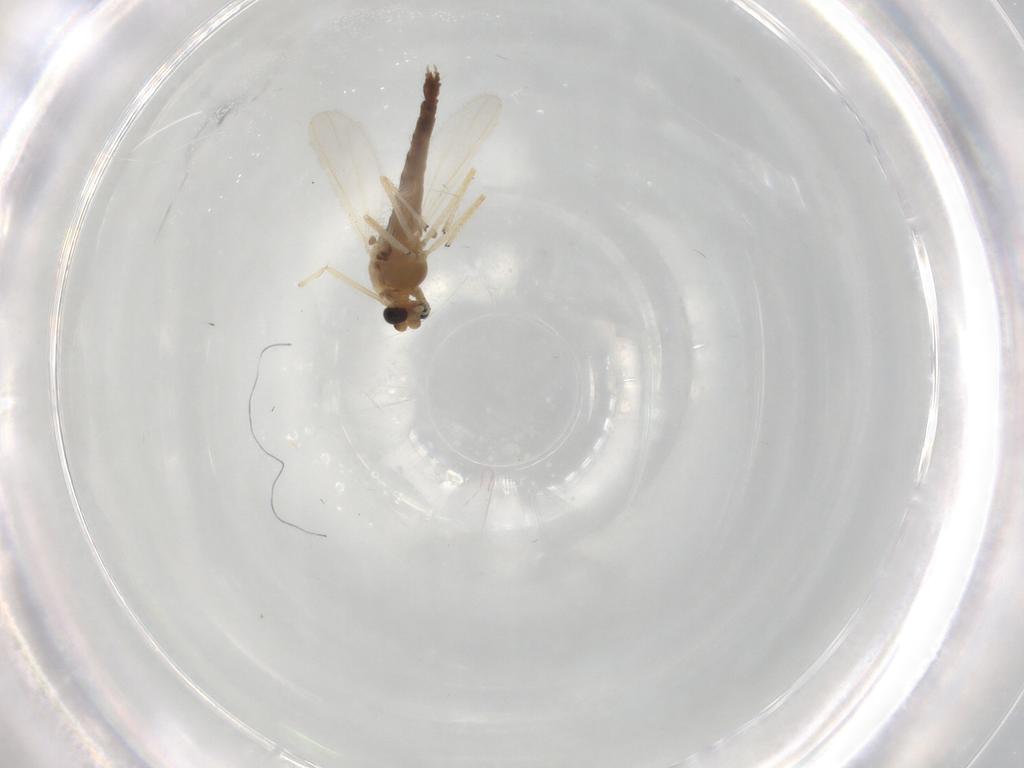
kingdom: Animalia
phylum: Arthropoda
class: Insecta
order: Diptera
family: Chironomidae
